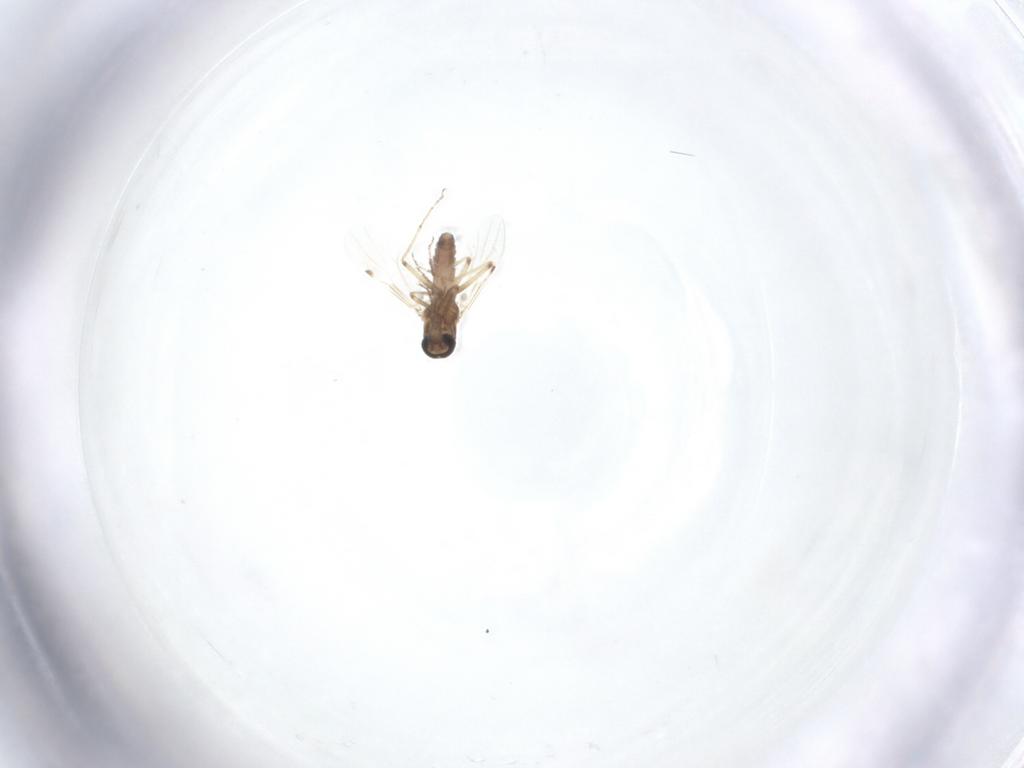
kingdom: Animalia
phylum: Arthropoda
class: Insecta
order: Diptera
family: Ceratopogonidae
